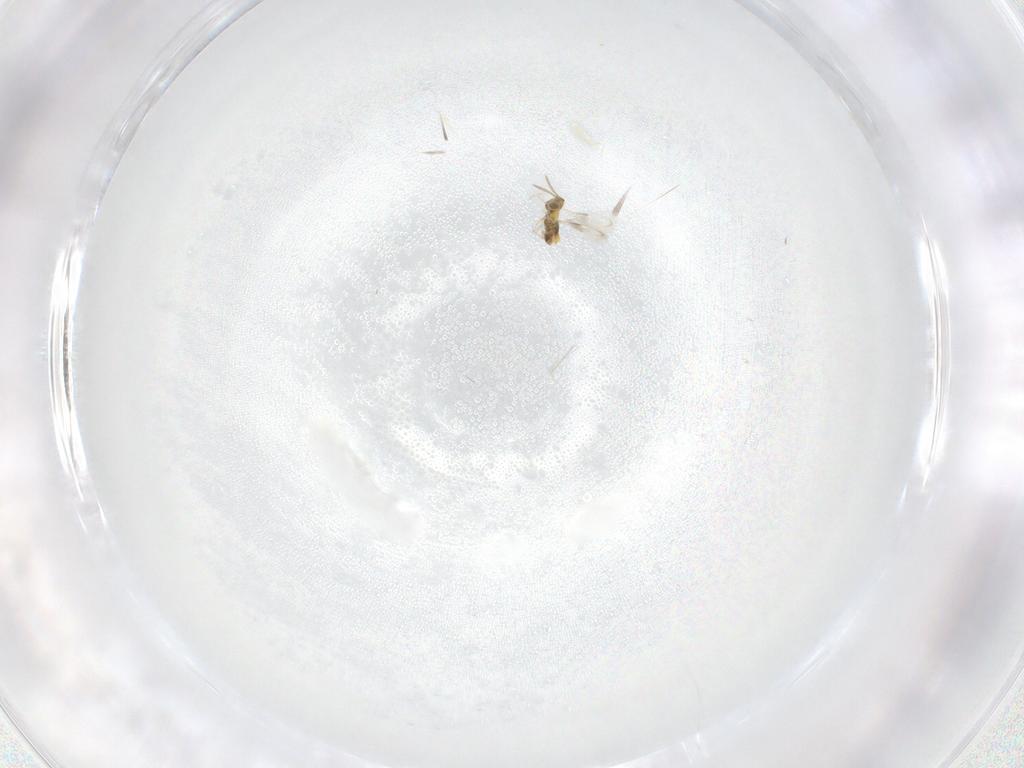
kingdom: Animalia
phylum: Arthropoda
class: Insecta
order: Hymenoptera
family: Aphelinidae
